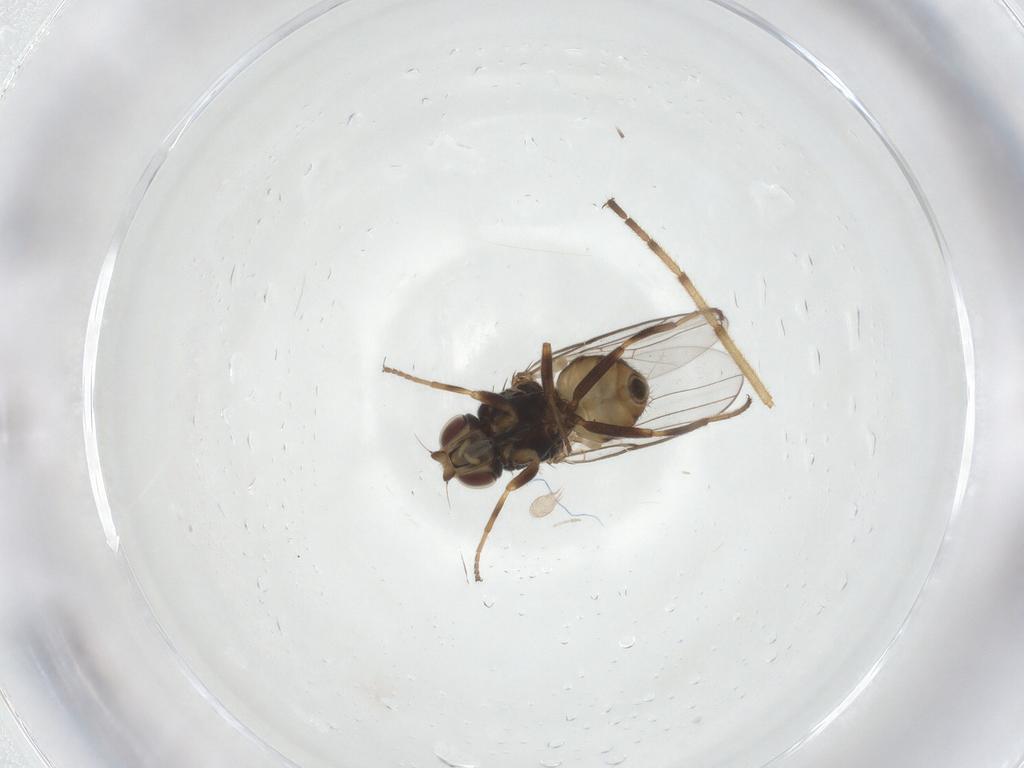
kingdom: Animalia
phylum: Arthropoda
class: Insecta
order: Diptera
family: Chloropidae
